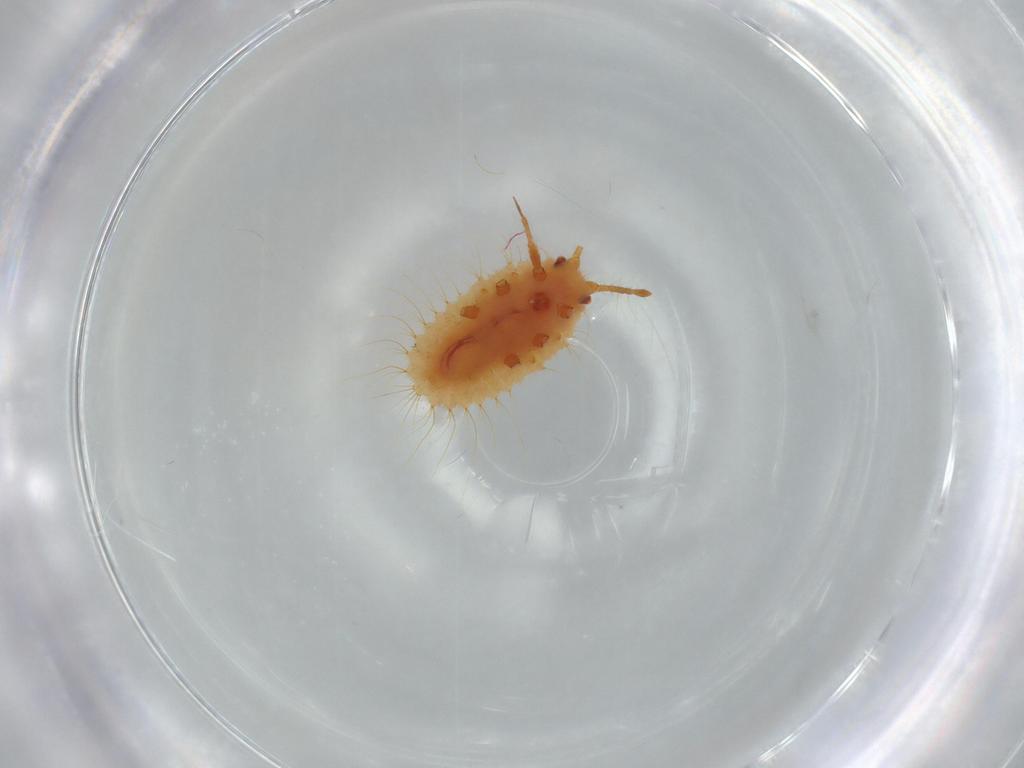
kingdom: Animalia
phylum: Arthropoda
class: Insecta
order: Hemiptera
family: Coccoidea_incertae_sedis
